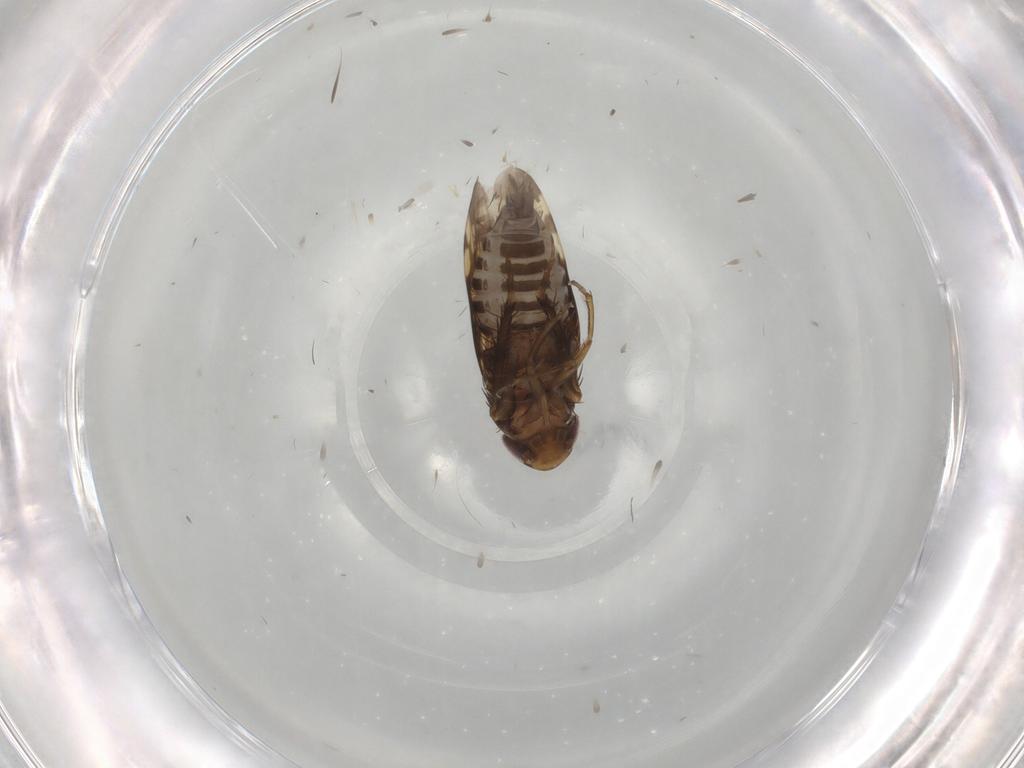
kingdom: Animalia
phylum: Arthropoda
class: Insecta
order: Hemiptera
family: Cicadellidae
